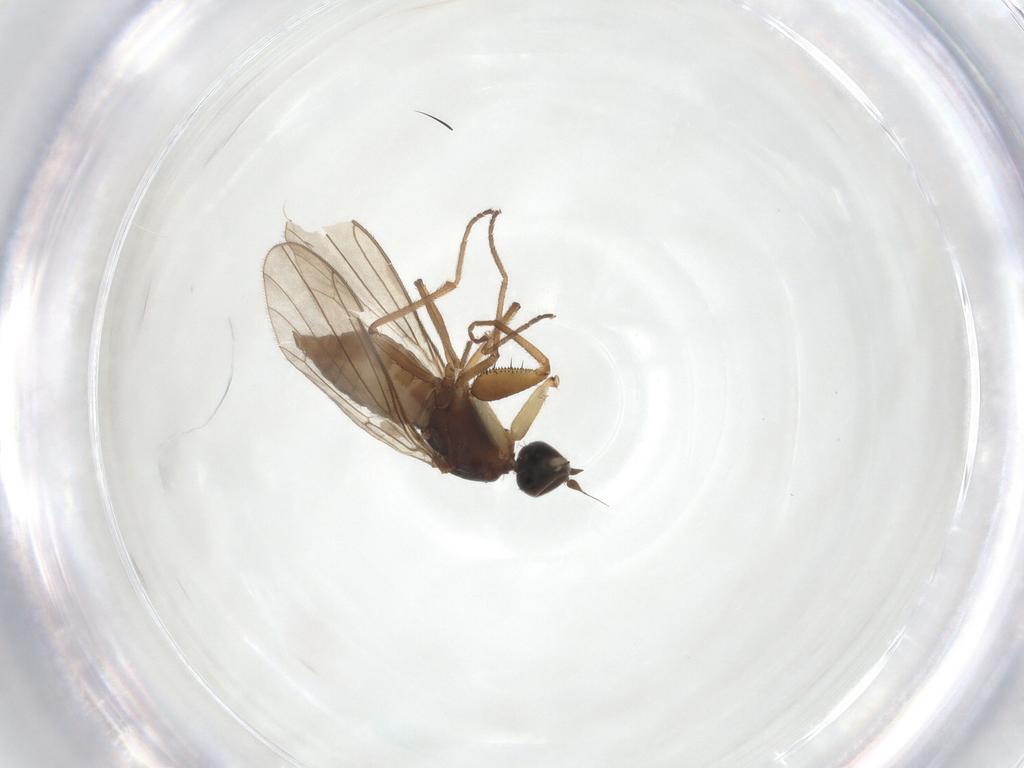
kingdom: Animalia
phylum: Arthropoda
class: Insecta
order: Diptera
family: Empididae
